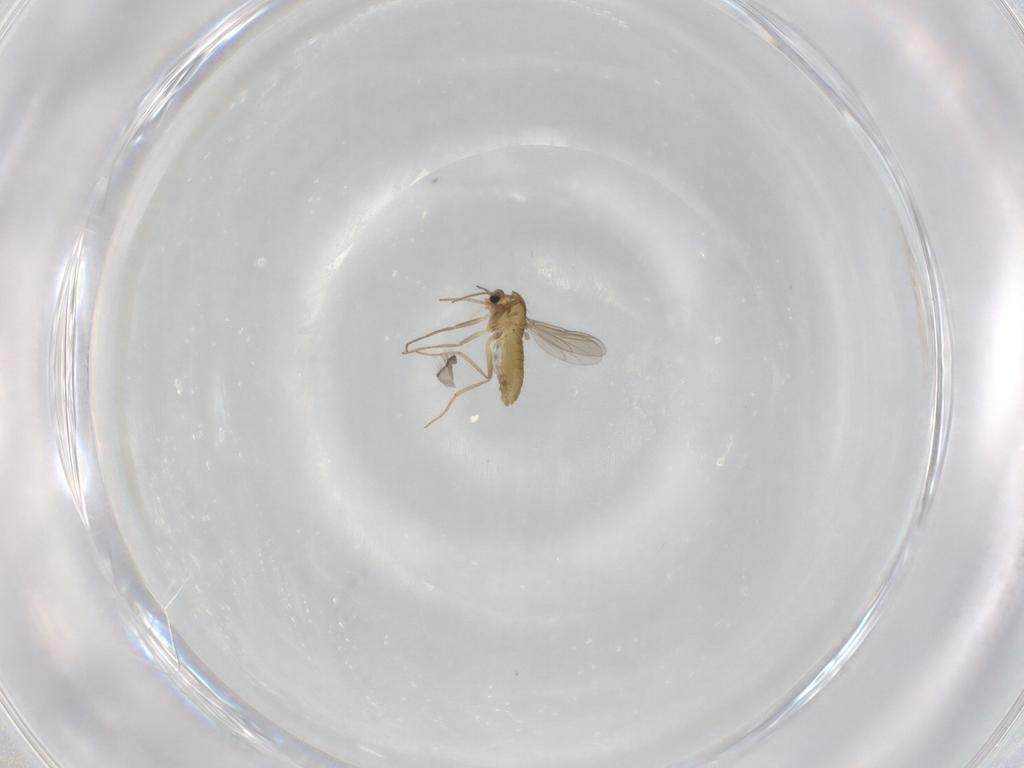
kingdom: Animalia
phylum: Arthropoda
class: Insecta
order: Diptera
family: Chironomidae
